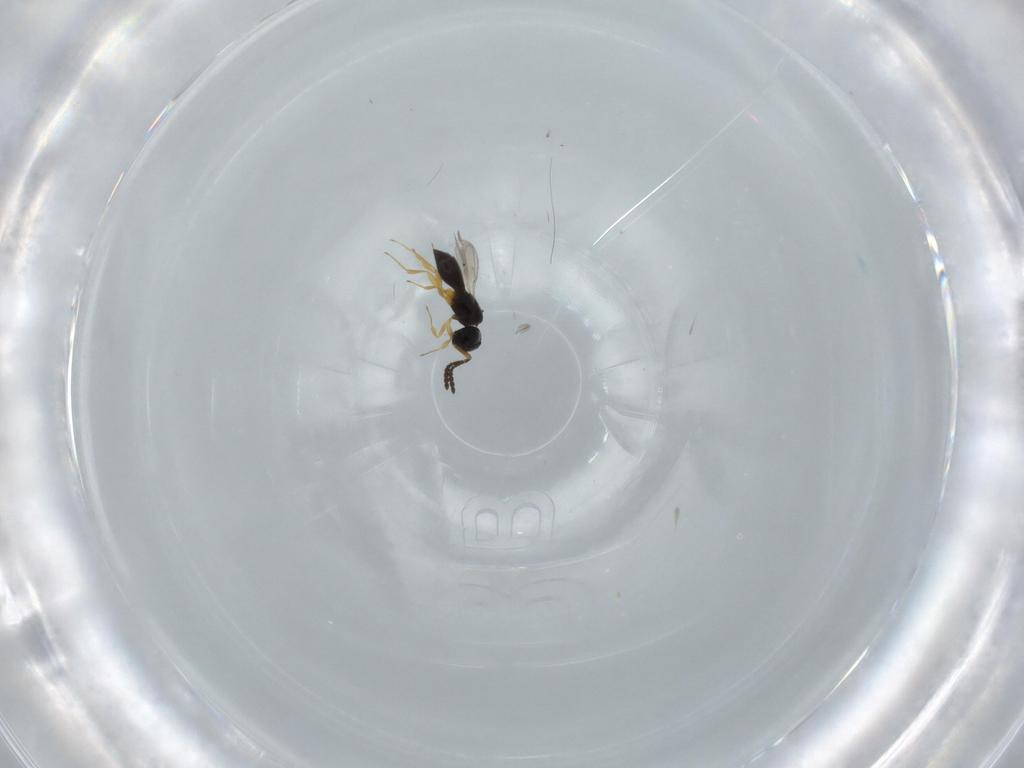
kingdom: Animalia
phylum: Arthropoda
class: Insecta
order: Hymenoptera
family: Scelionidae
